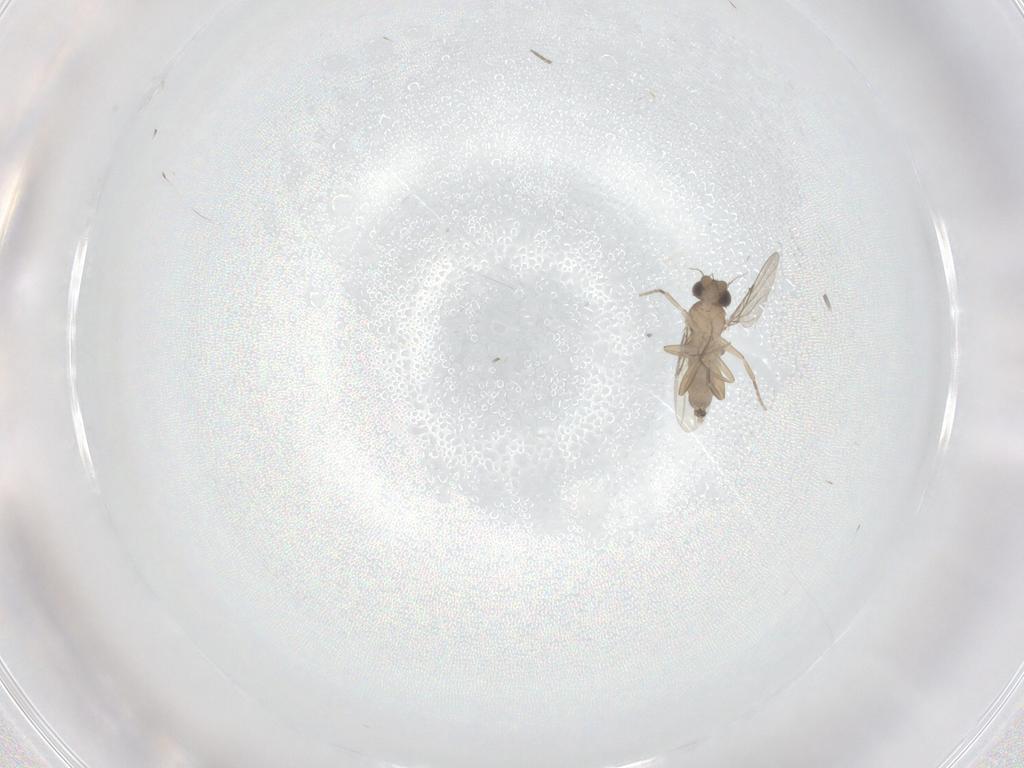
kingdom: Animalia
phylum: Arthropoda
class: Insecta
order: Diptera
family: Phoridae
